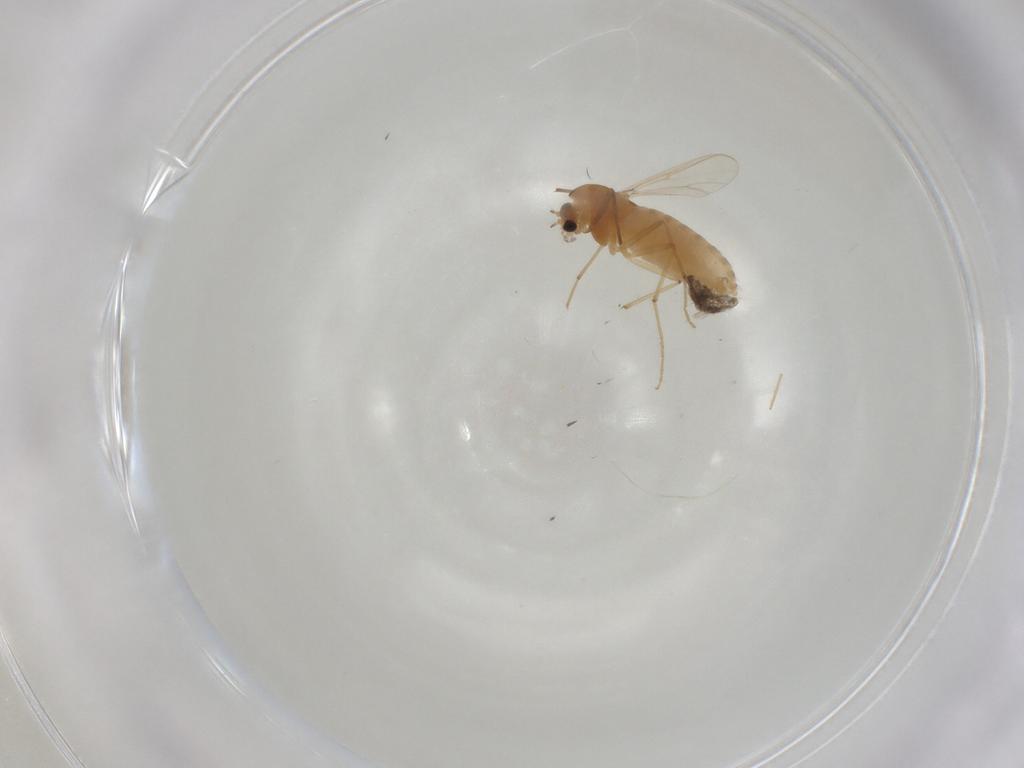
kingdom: Animalia
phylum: Arthropoda
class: Insecta
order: Diptera
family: Chironomidae
